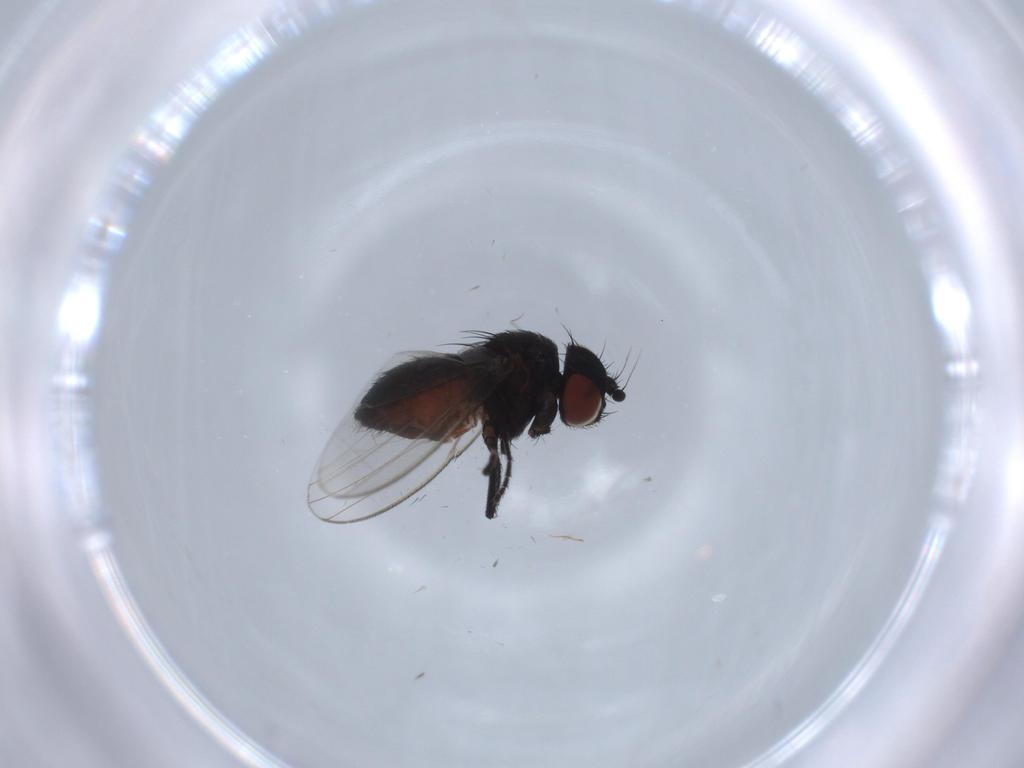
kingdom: Animalia
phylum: Arthropoda
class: Insecta
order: Diptera
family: Milichiidae
